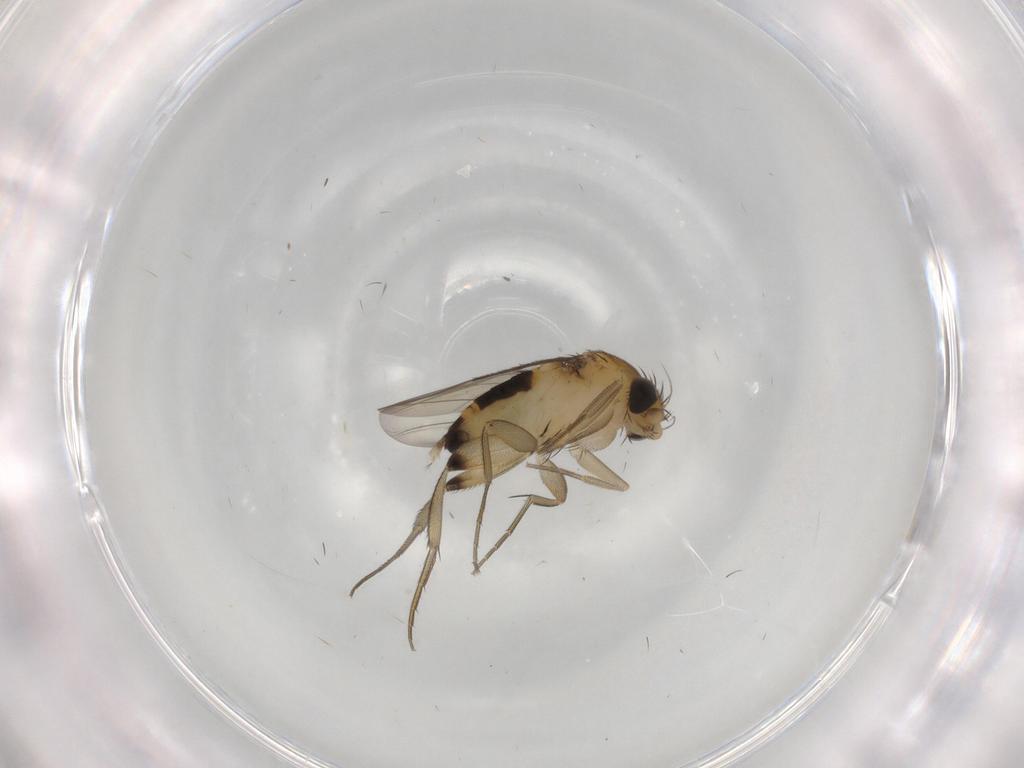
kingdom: Animalia
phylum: Arthropoda
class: Insecta
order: Diptera
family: Phoridae
